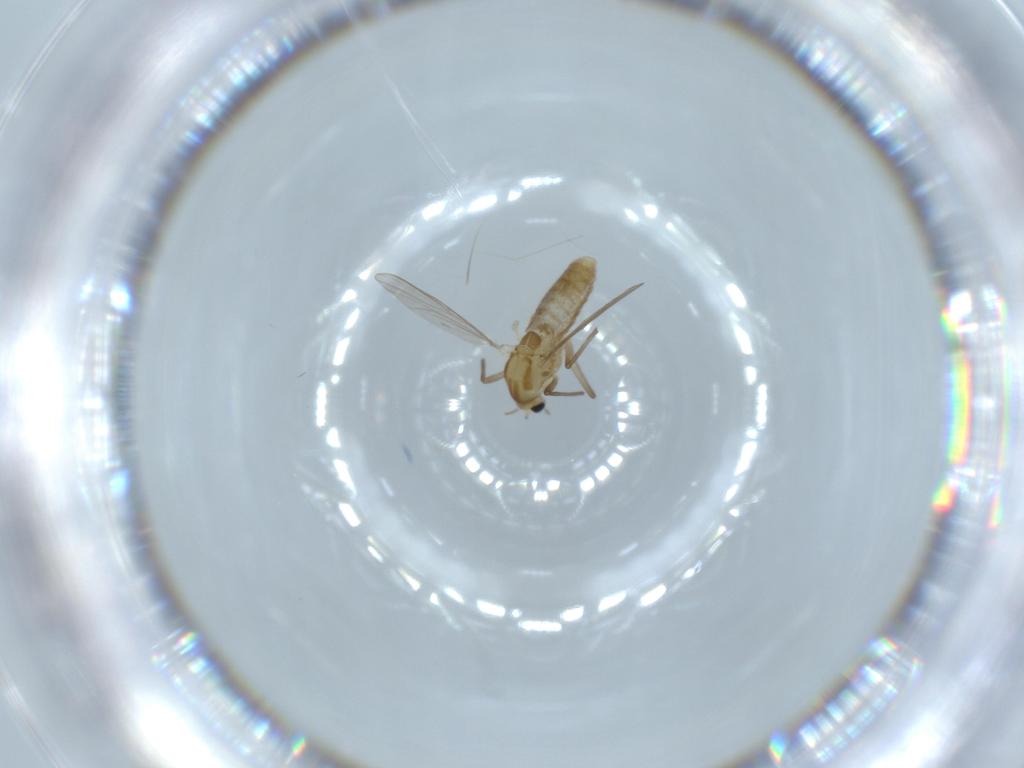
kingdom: Animalia
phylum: Arthropoda
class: Insecta
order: Diptera
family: Chironomidae
